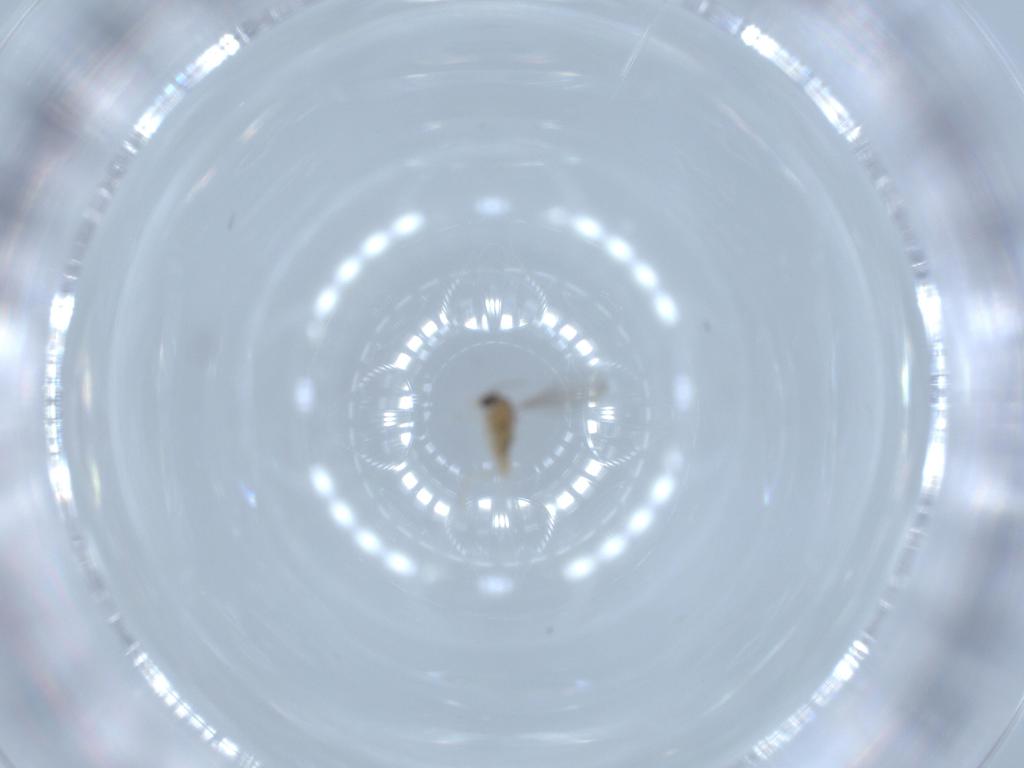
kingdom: Animalia
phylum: Arthropoda
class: Insecta
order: Diptera
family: Cecidomyiidae
